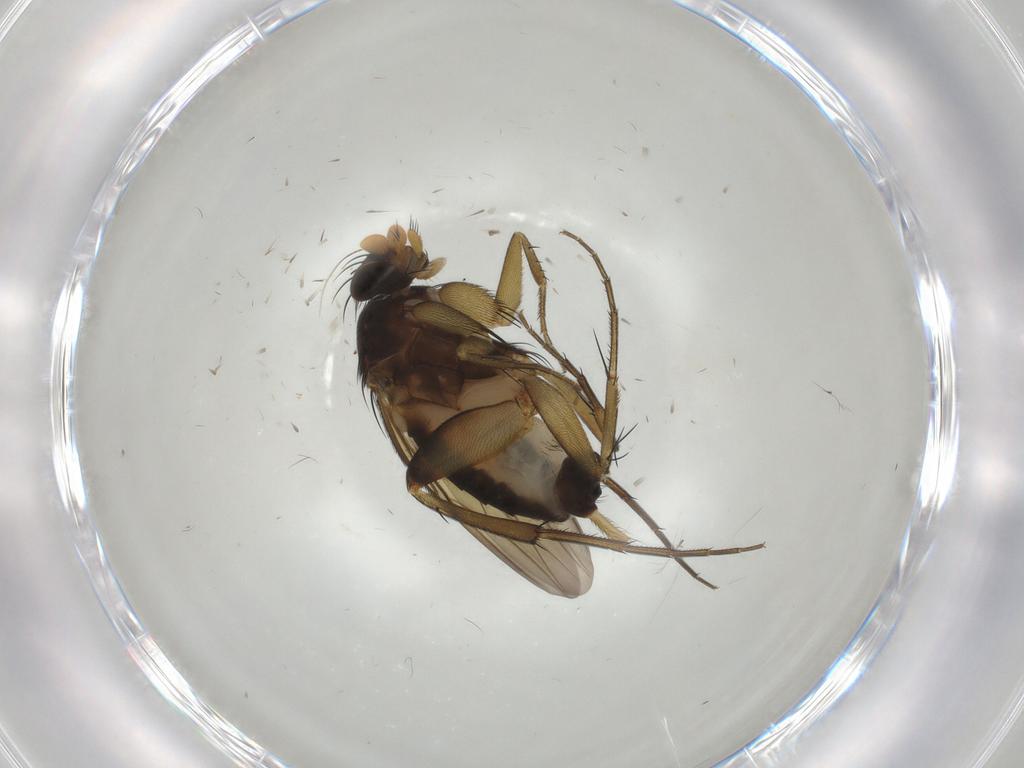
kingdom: Animalia
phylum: Arthropoda
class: Insecta
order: Diptera
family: Phoridae
